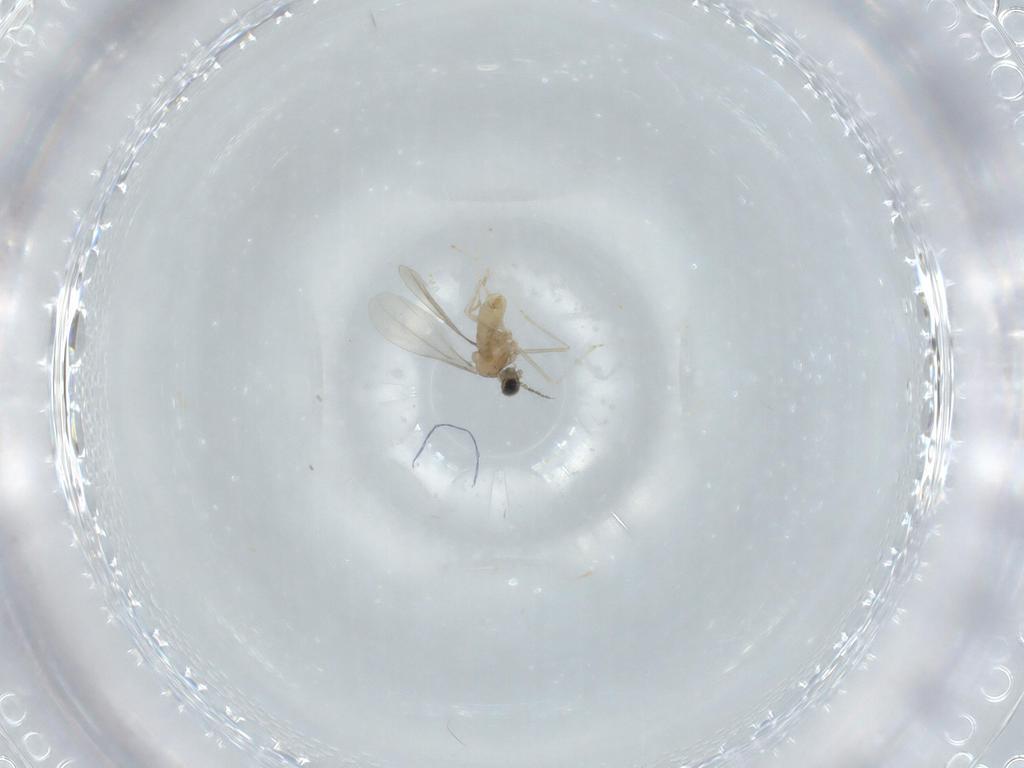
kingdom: Animalia
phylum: Arthropoda
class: Insecta
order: Diptera
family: Cecidomyiidae
